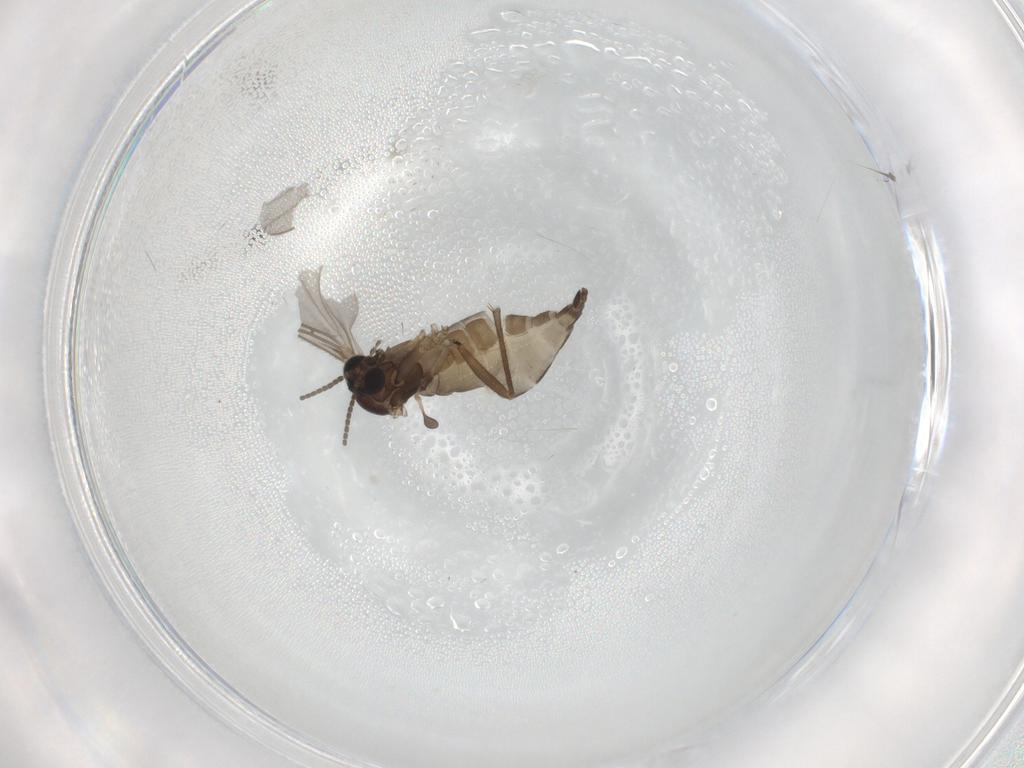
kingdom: Animalia
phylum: Arthropoda
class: Insecta
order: Diptera
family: Sciaridae
